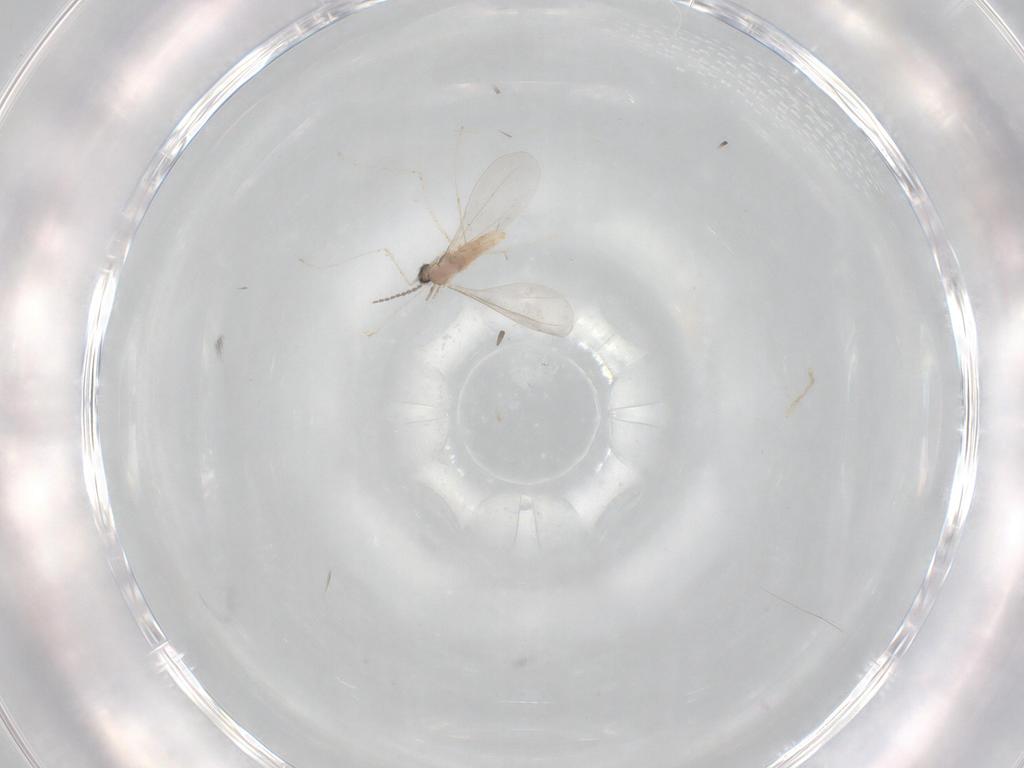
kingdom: Animalia
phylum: Arthropoda
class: Insecta
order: Diptera
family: Cecidomyiidae
